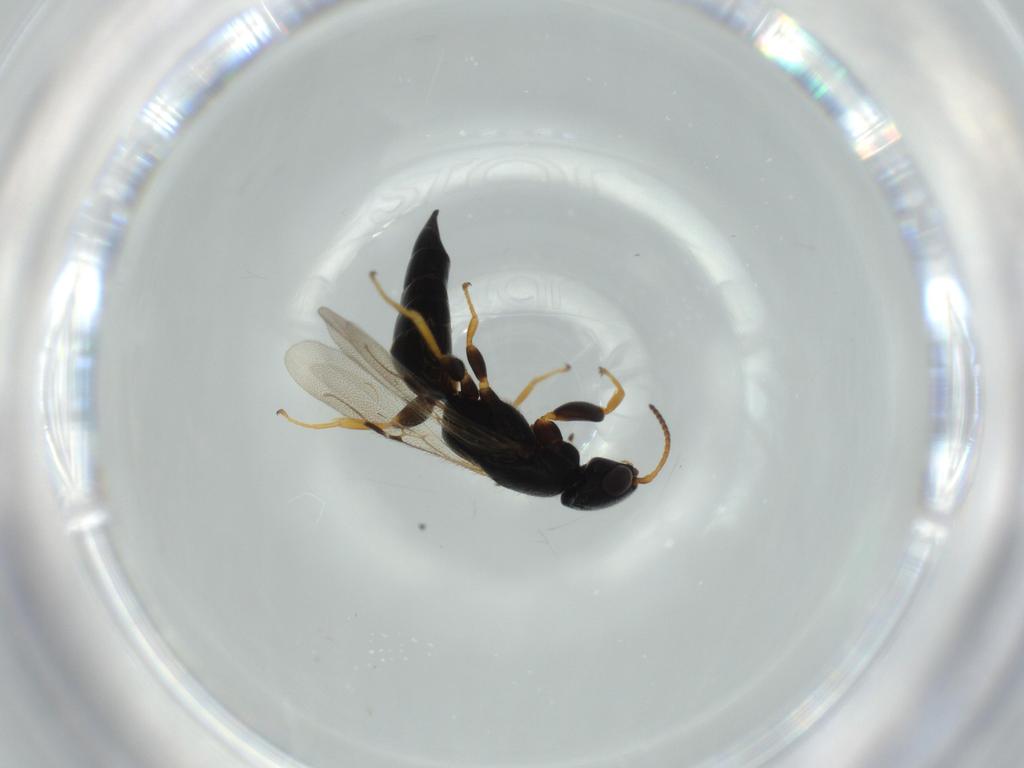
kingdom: Animalia
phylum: Arthropoda
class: Insecta
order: Hymenoptera
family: Bethylidae
